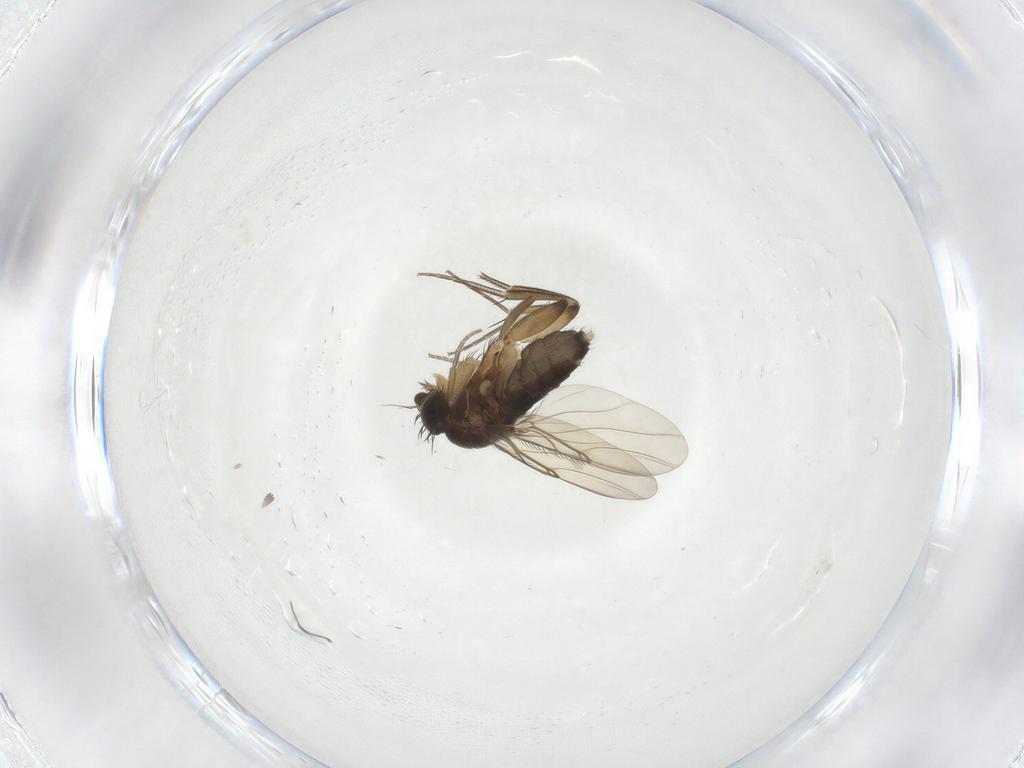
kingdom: Animalia
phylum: Arthropoda
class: Insecta
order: Diptera
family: Phoridae
